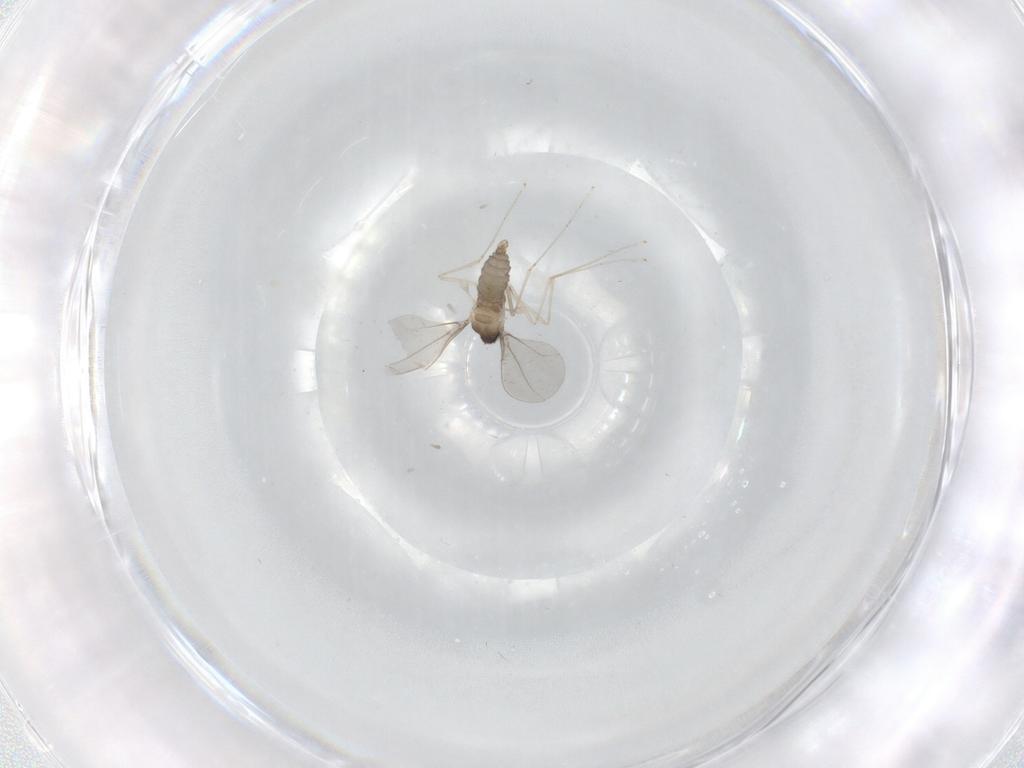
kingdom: Animalia
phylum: Arthropoda
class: Insecta
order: Diptera
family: Cecidomyiidae
